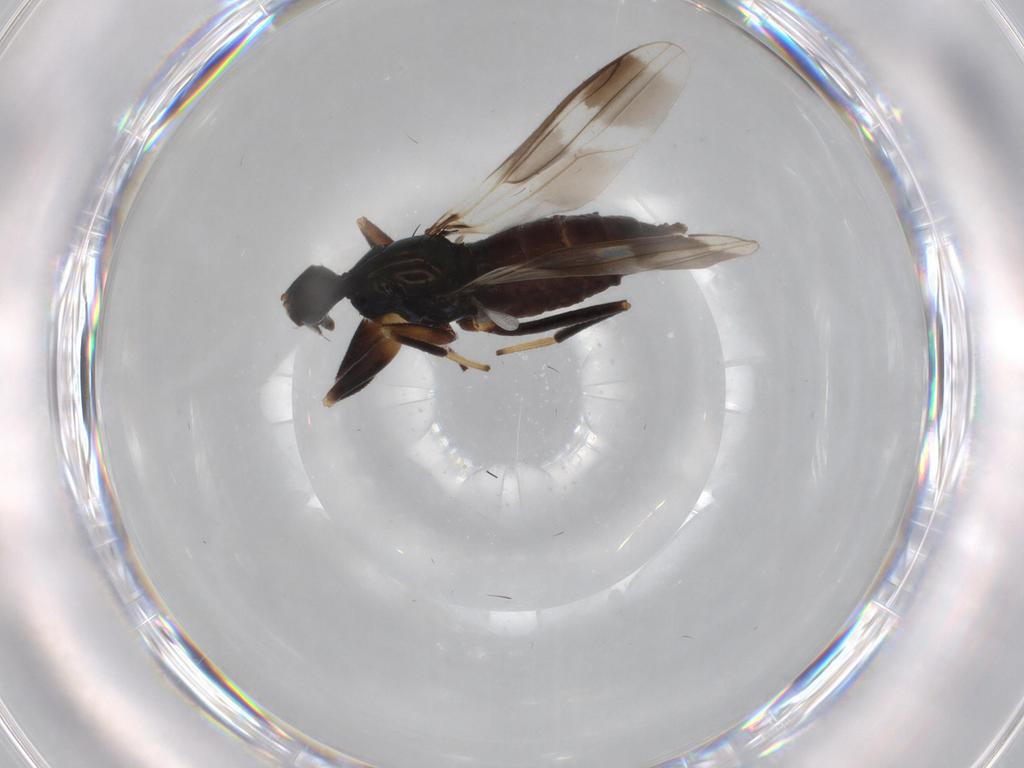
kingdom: Animalia
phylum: Arthropoda
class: Insecta
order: Diptera
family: Hybotidae
